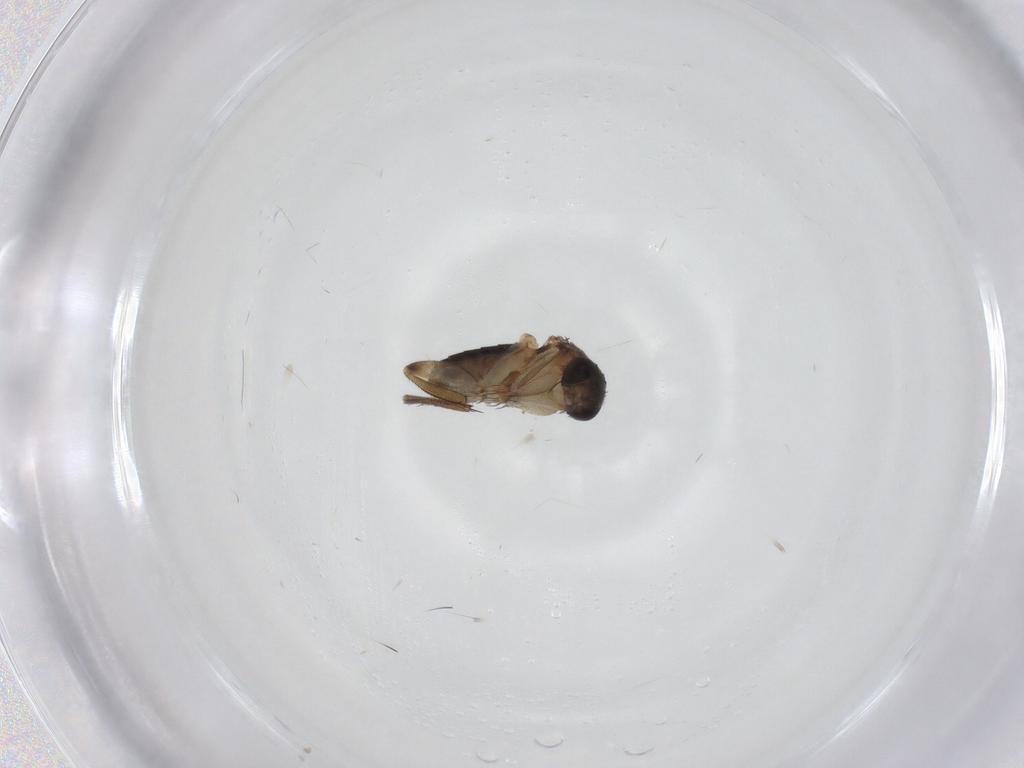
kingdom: Animalia
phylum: Arthropoda
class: Insecta
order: Diptera
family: Phoridae
